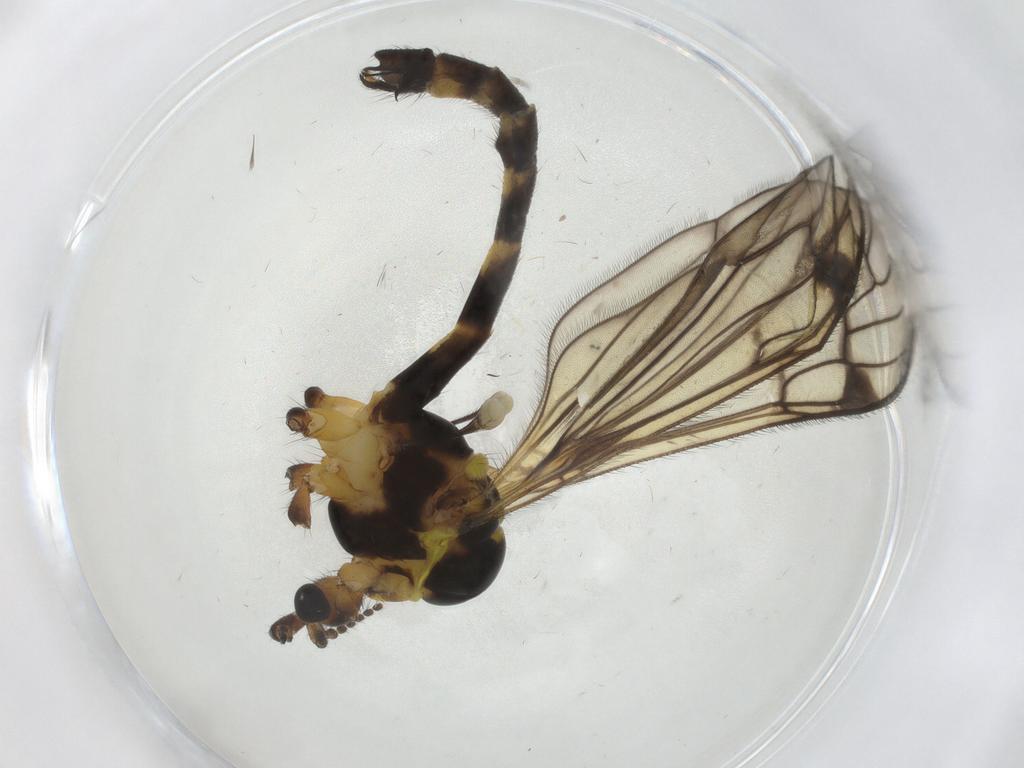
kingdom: Animalia
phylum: Arthropoda
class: Insecta
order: Diptera
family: Limoniidae
